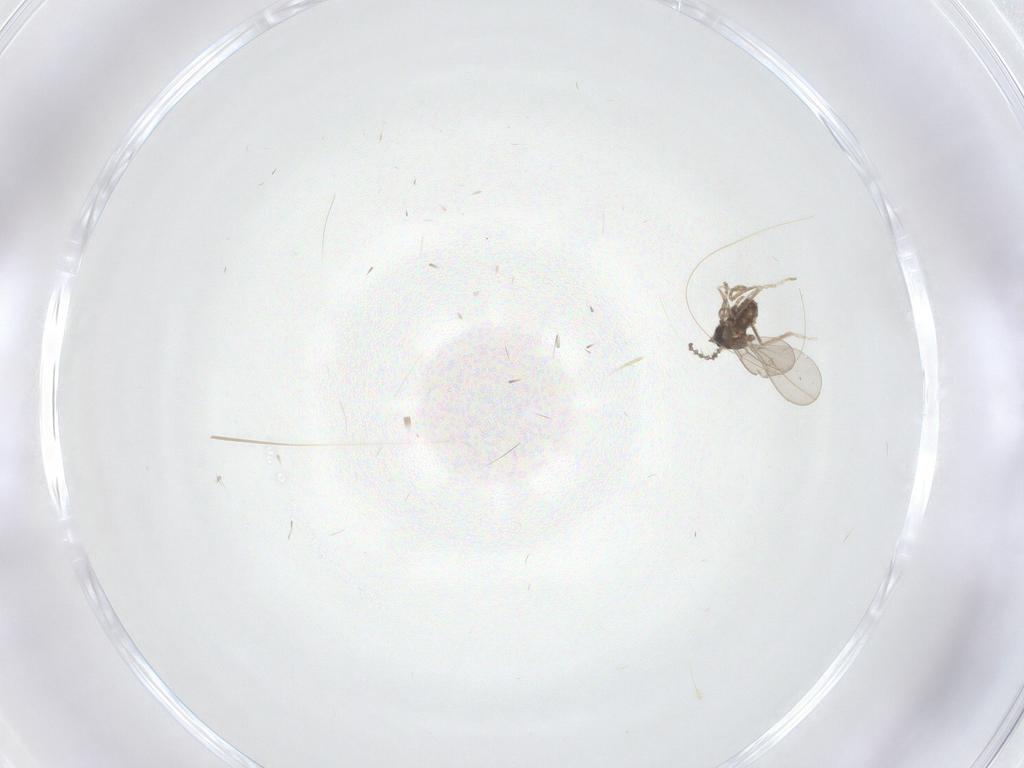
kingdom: Animalia
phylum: Arthropoda
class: Insecta
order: Diptera
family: Cecidomyiidae
